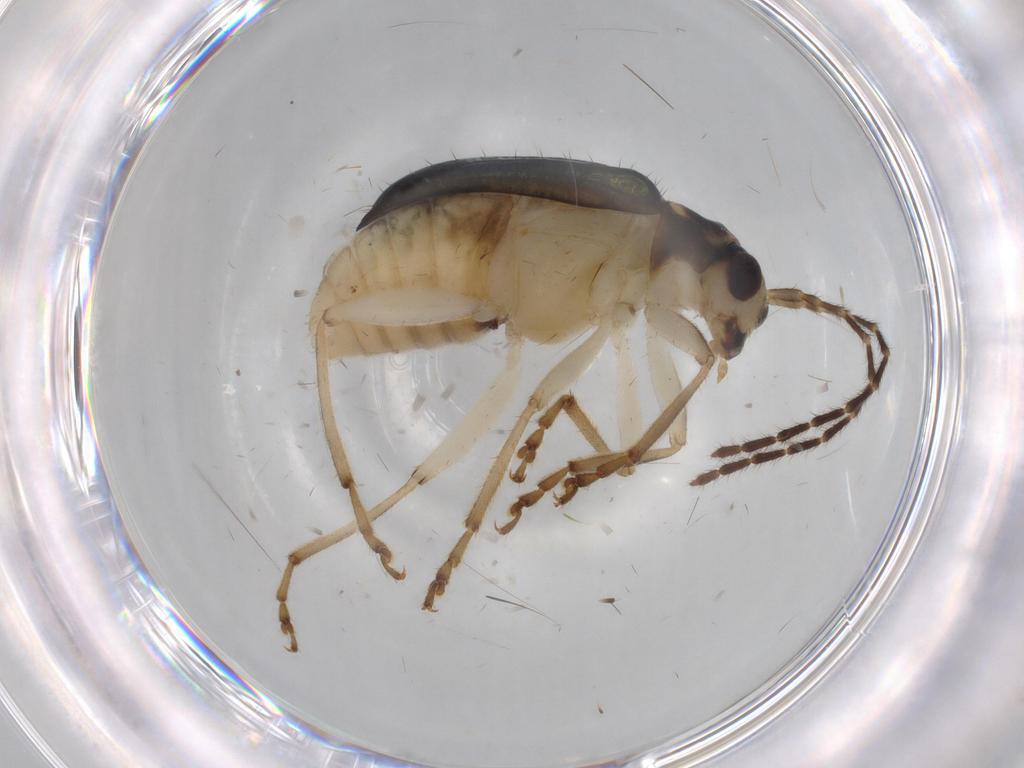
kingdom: Animalia
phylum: Arthropoda
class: Insecta
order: Coleoptera
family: Chrysomelidae
